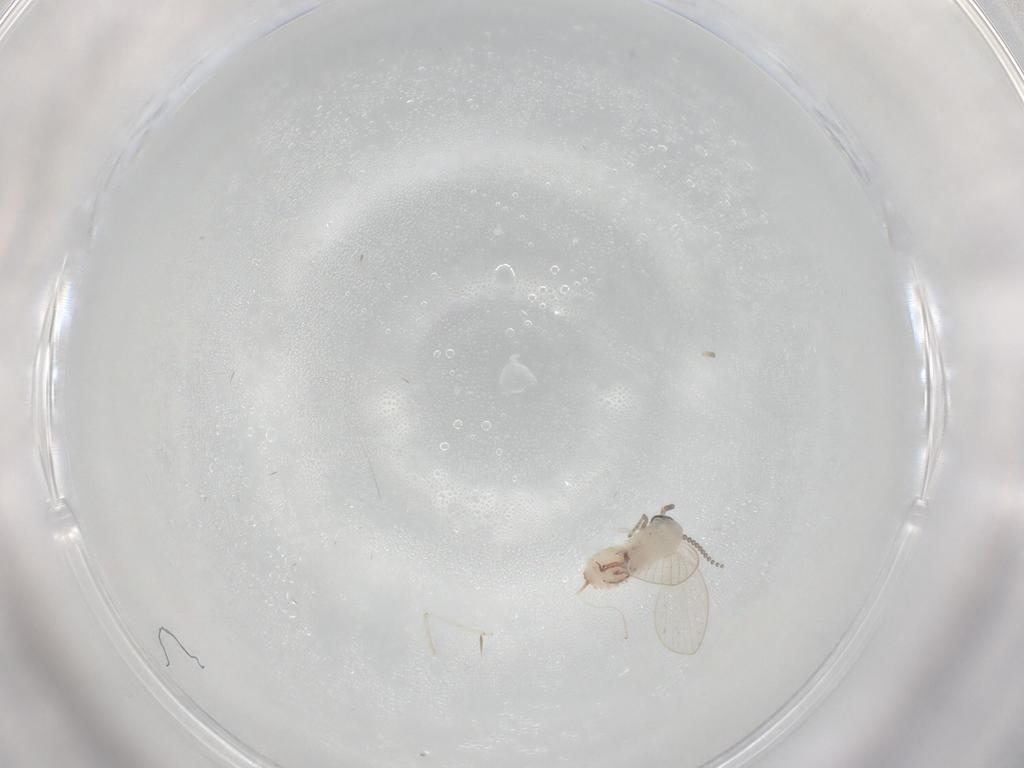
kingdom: Animalia
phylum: Arthropoda
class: Insecta
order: Diptera
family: Psychodidae
